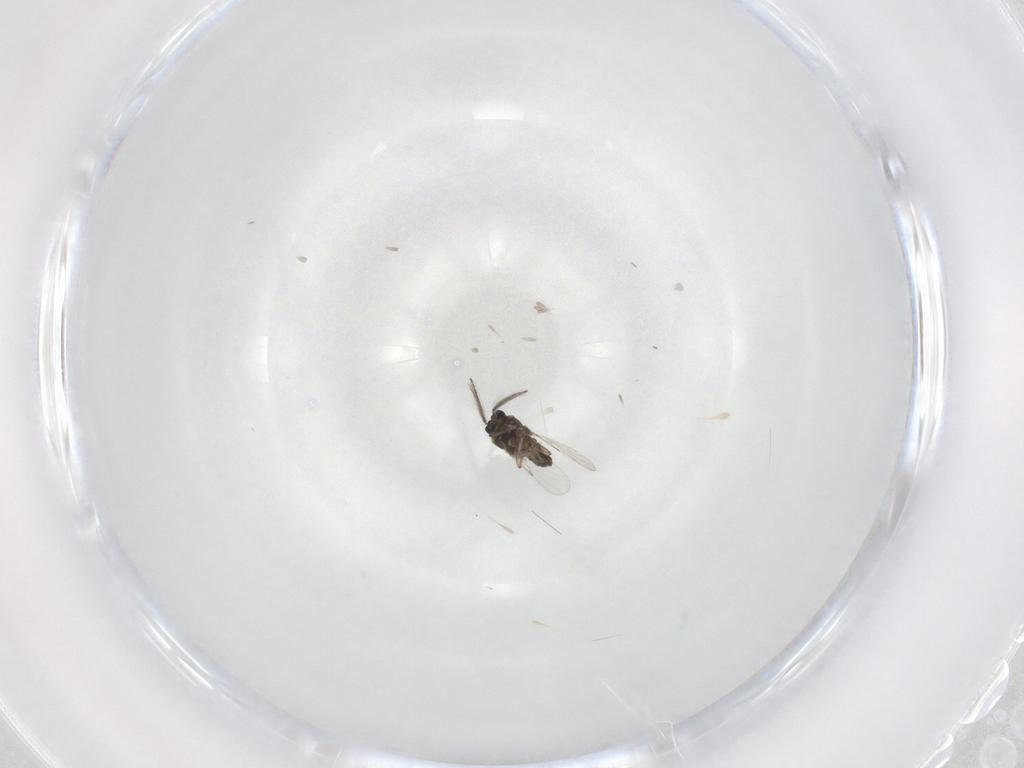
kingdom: Animalia
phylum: Arthropoda
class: Insecta
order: Diptera
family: Ceratopogonidae
